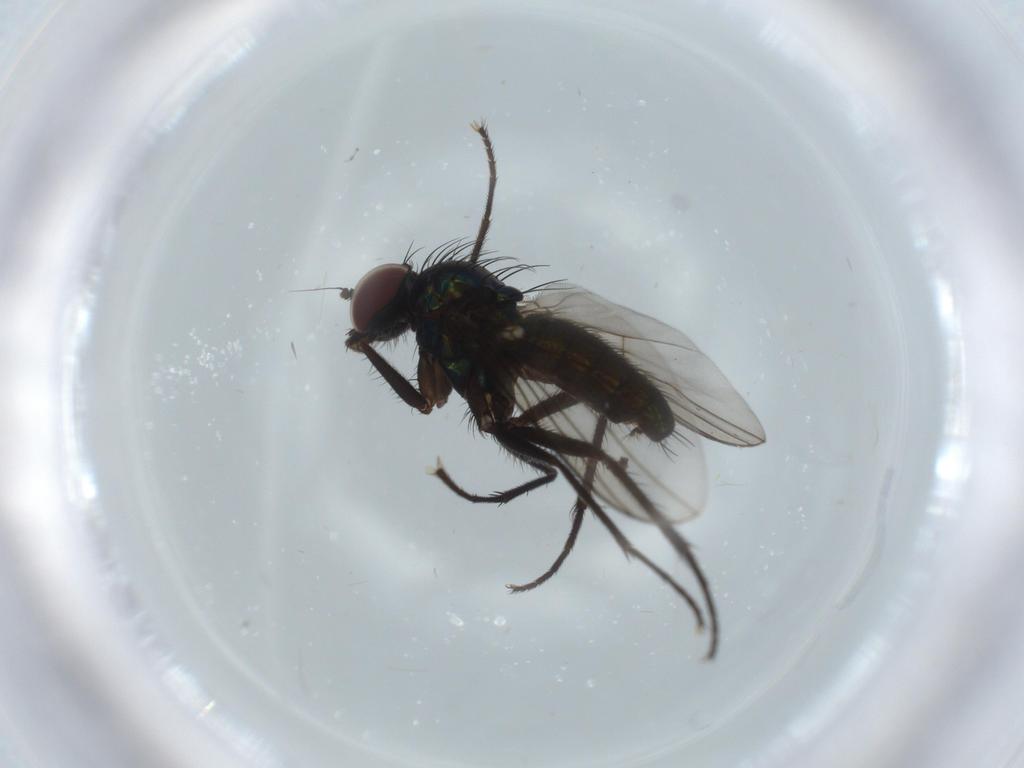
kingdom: Animalia
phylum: Arthropoda
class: Insecta
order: Diptera
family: Dolichopodidae
